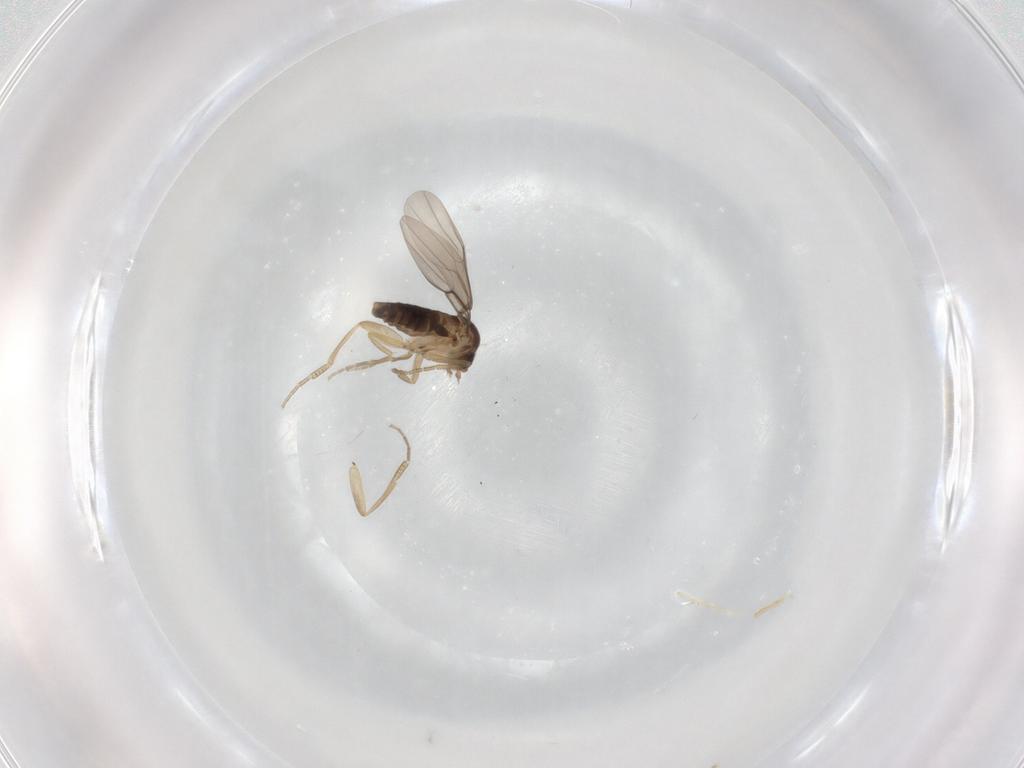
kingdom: Animalia
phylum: Arthropoda
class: Insecta
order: Diptera
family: Phoridae
